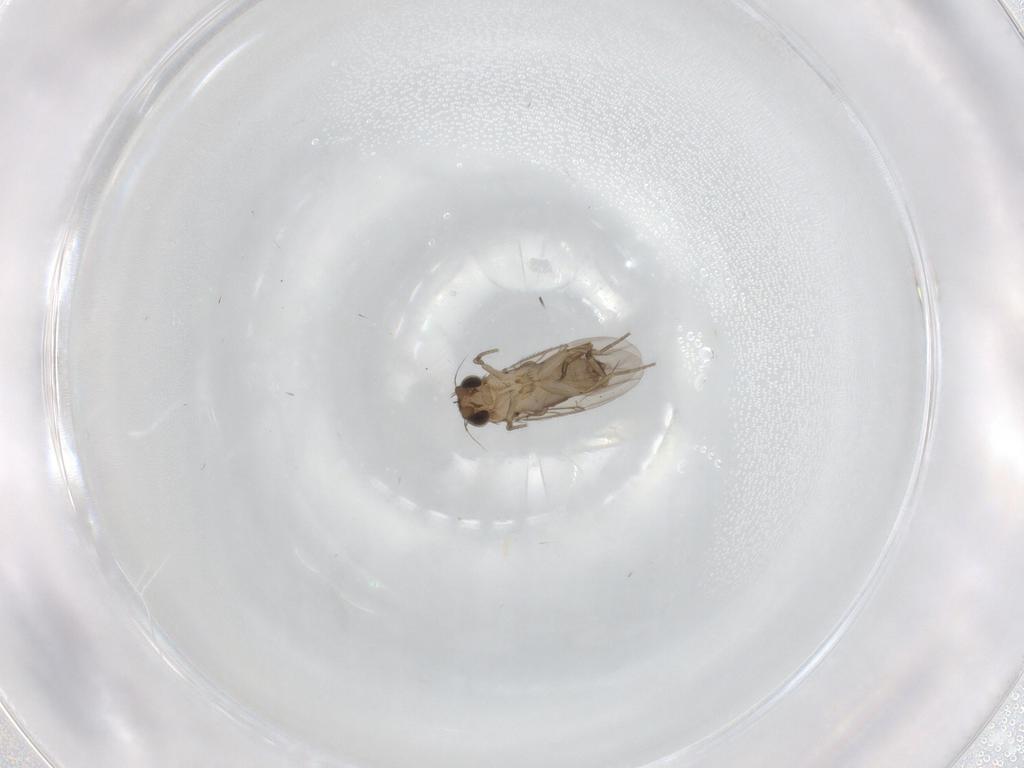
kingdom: Animalia
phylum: Arthropoda
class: Insecta
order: Diptera
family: Phoridae
